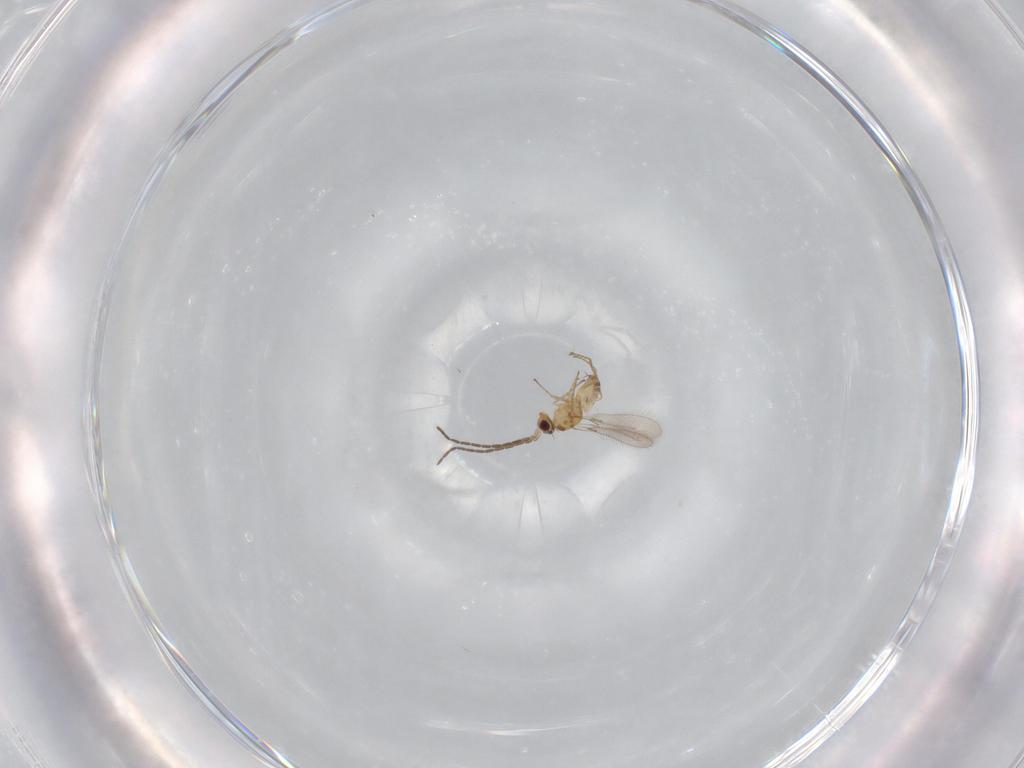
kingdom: Animalia
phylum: Arthropoda
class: Insecta
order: Hymenoptera
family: Mymaridae
